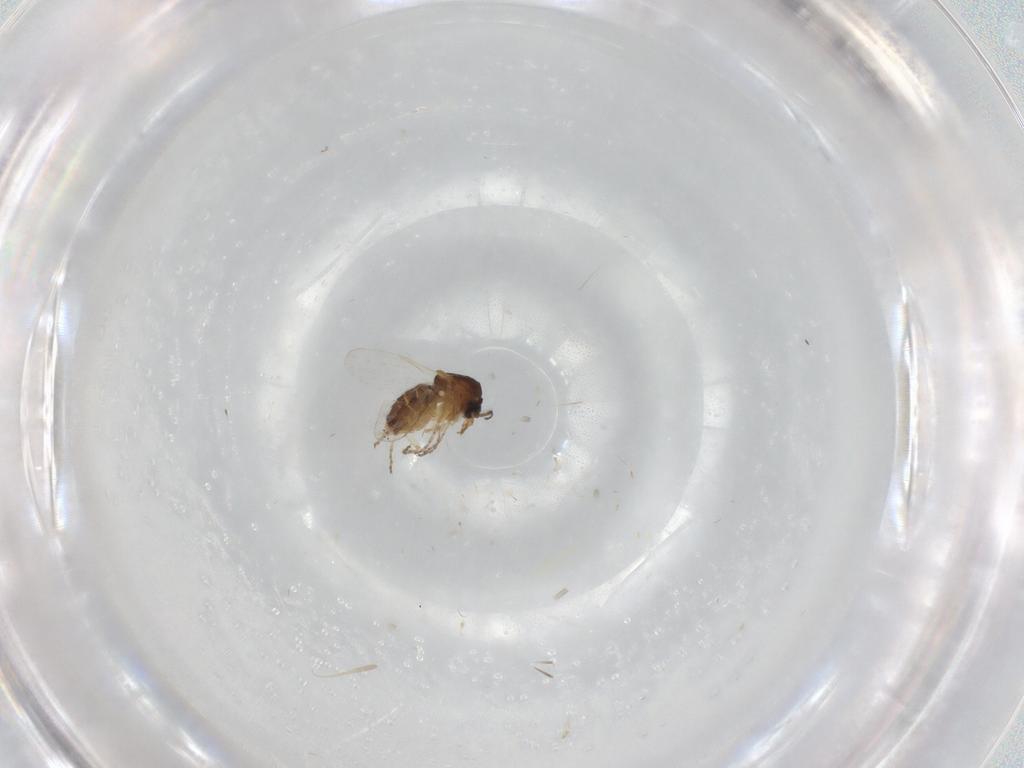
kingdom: Animalia
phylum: Arthropoda
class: Insecta
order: Diptera
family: Ceratopogonidae
